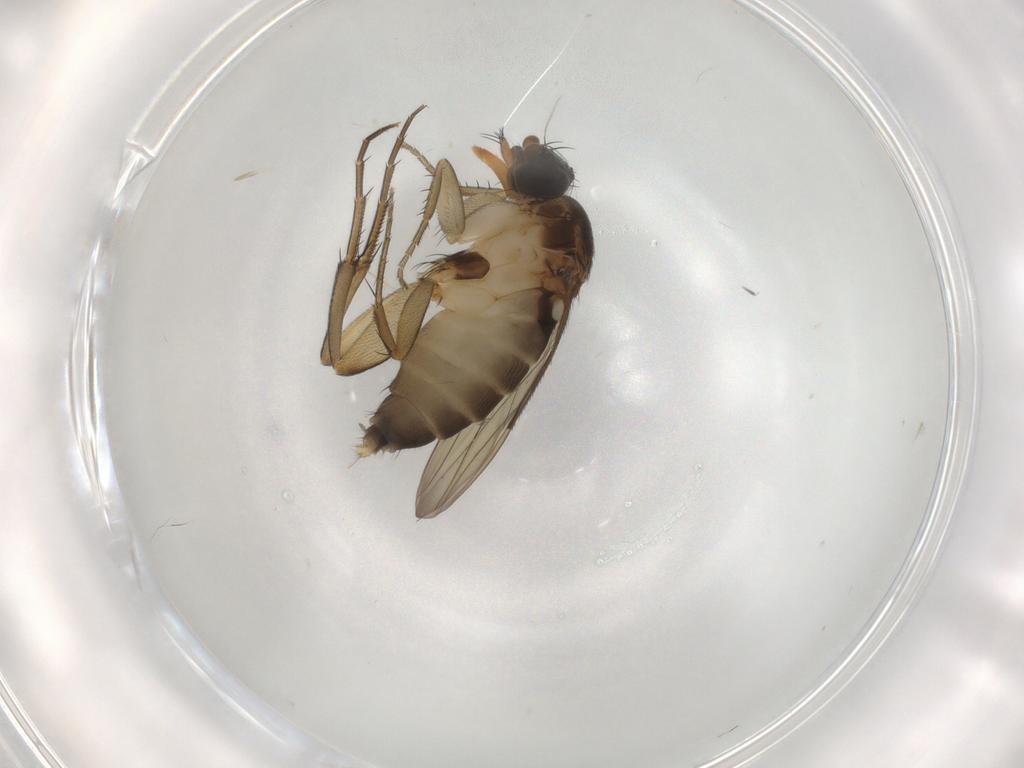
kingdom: Animalia
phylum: Arthropoda
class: Insecta
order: Diptera
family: Phoridae
